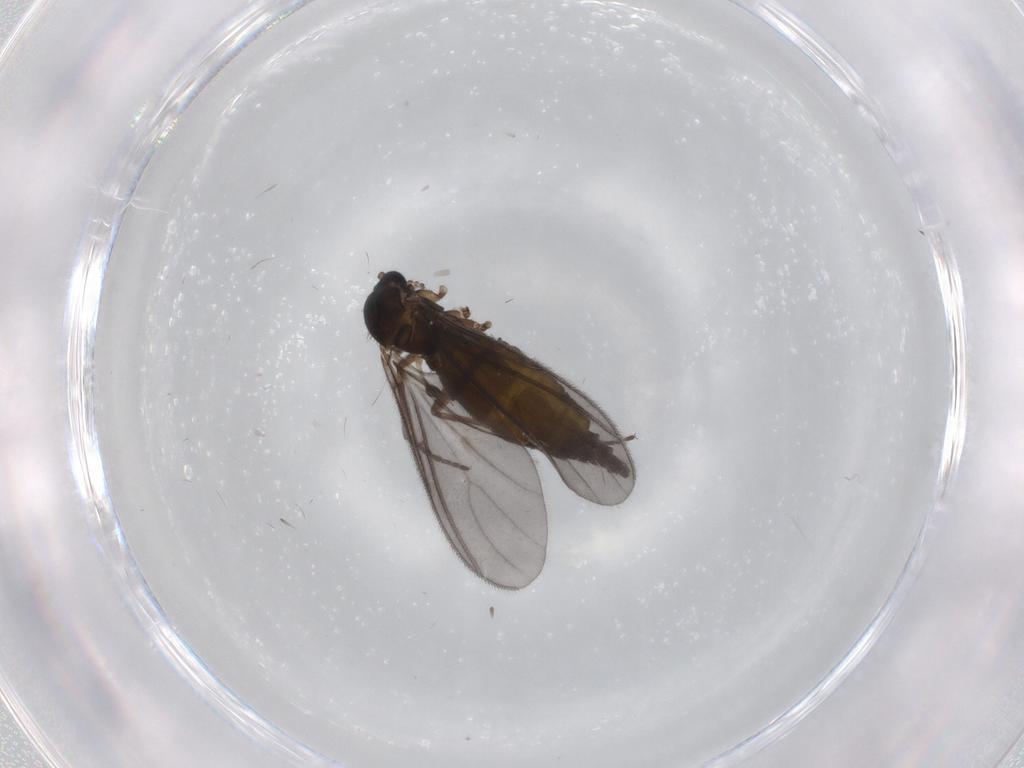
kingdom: Animalia
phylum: Arthropoda
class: Insecta
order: Diptera
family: Sciaridae
